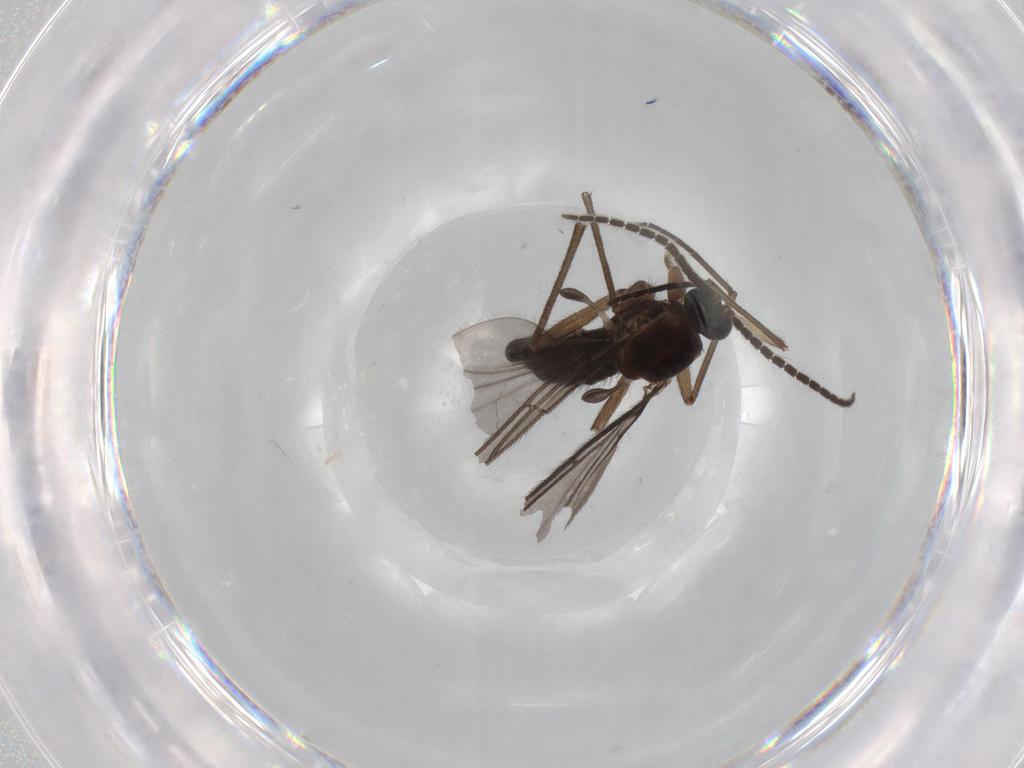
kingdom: Animalia
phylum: Arthropoda
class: Insecta
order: Diptera
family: Sciaridae
